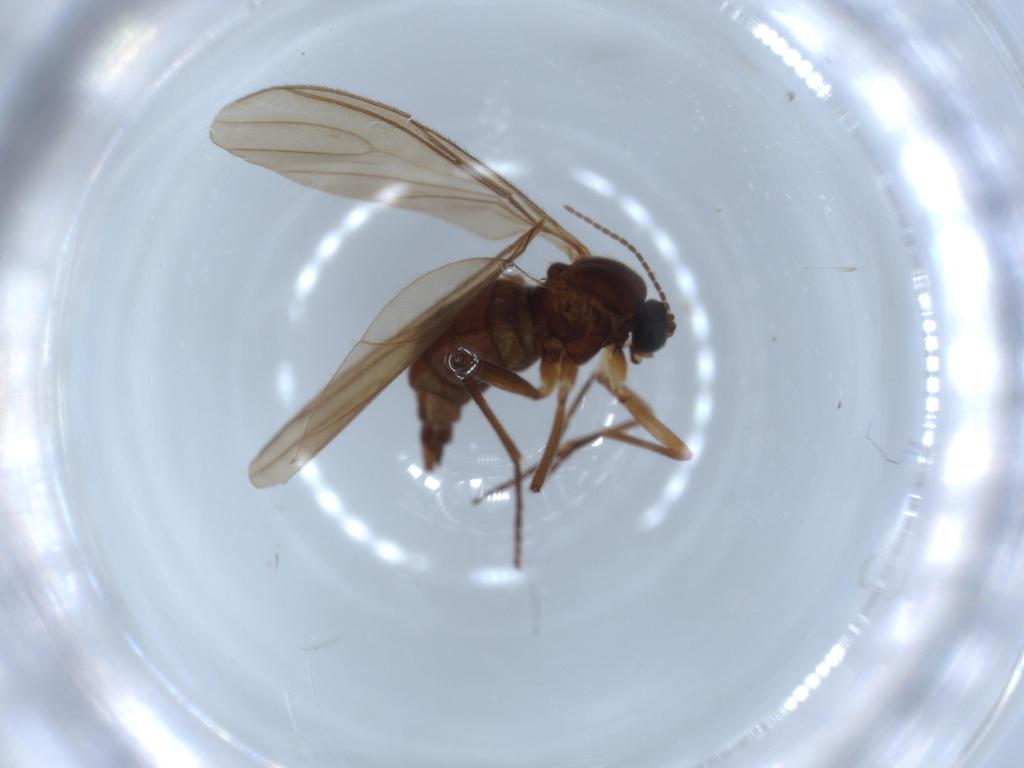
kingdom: Animalia
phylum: Arthropoda
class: Insecta
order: Diptera
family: Sciaridae
